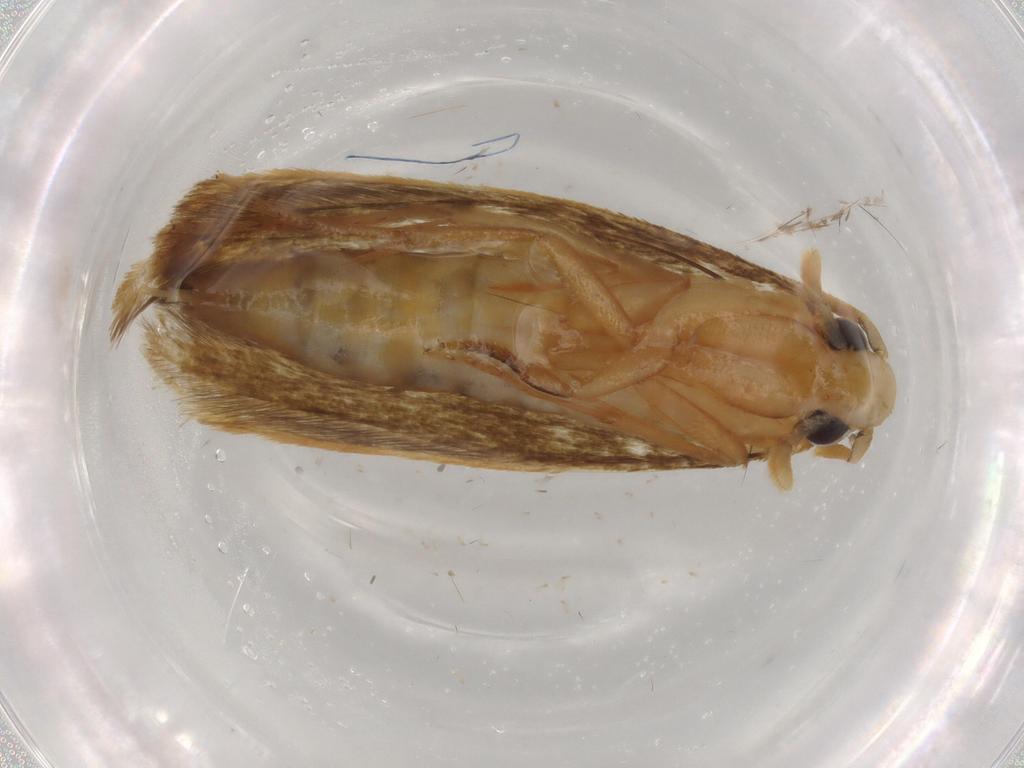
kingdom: Animalia
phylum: Arthropoda
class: Insecta
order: Lepidoptera
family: Tineidae
